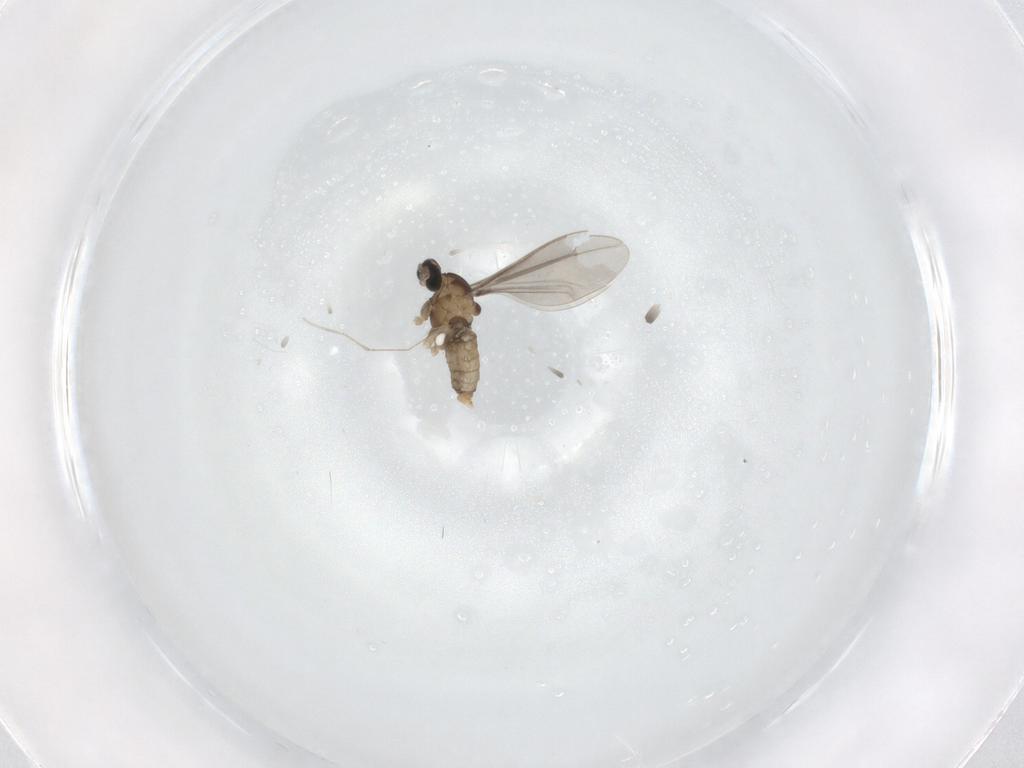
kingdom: Animalia
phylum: Arthropoda
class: Insecta
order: Diptera
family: Cecidomyiidae
